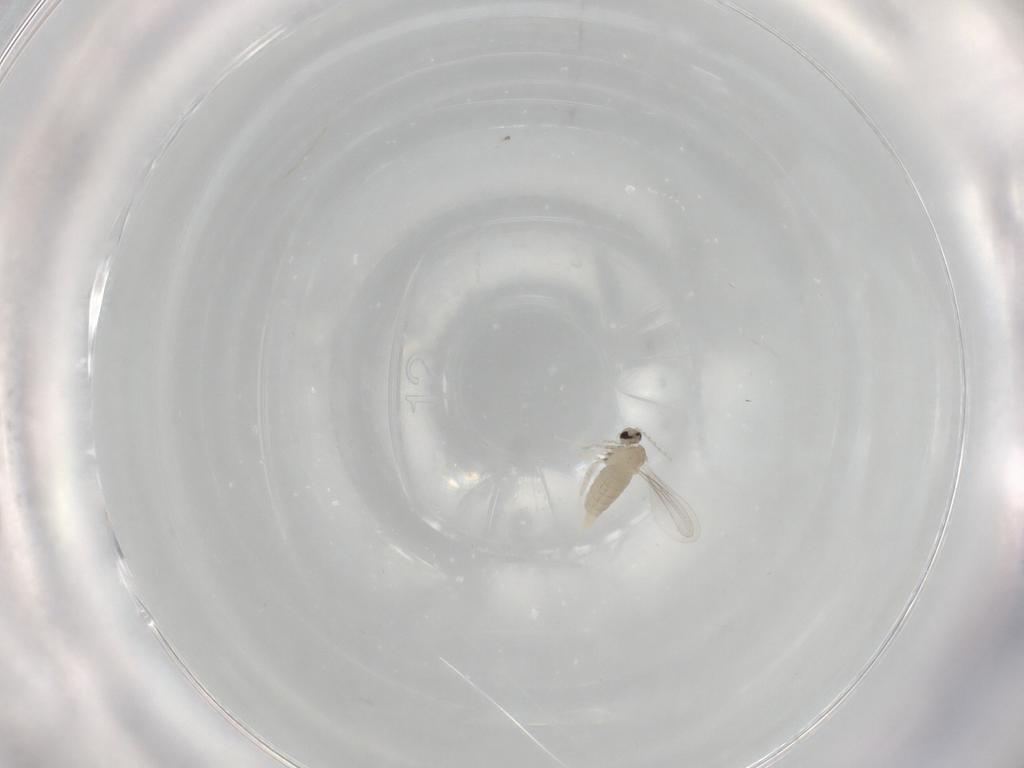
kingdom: Animalia
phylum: Arthropoda
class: Insecta
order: Diptera
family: Cecidomyiidae
